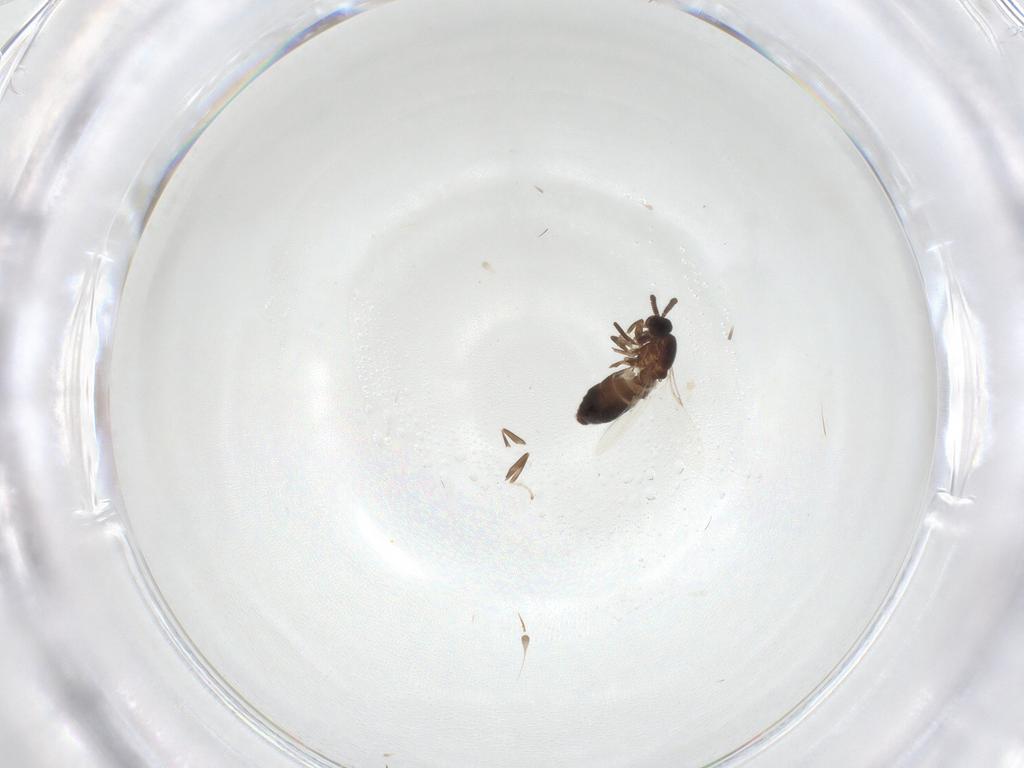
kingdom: Animalia
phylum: Arthropoda
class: Insecta
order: Diptera
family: Scatopsidae
